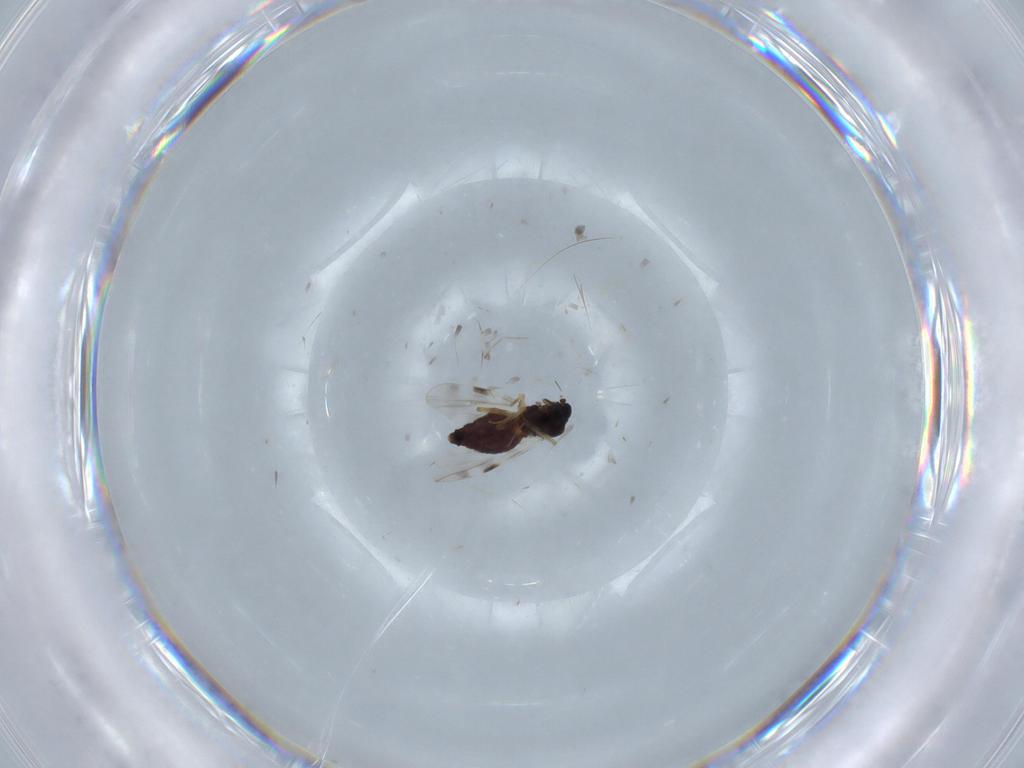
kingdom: Animalia
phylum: Arthropoda
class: Insecta
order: Diptera
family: Cecidomyiidae
